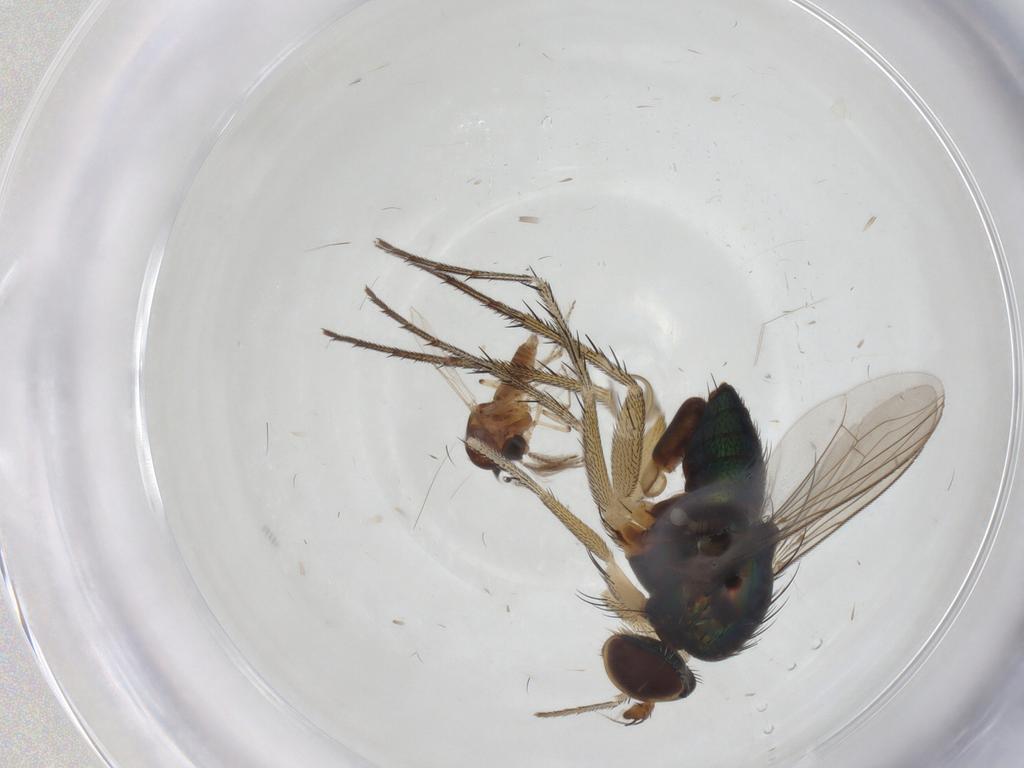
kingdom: Animalia
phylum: Arthropoda
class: Insecta
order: Diptera
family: Dolichopodidae
